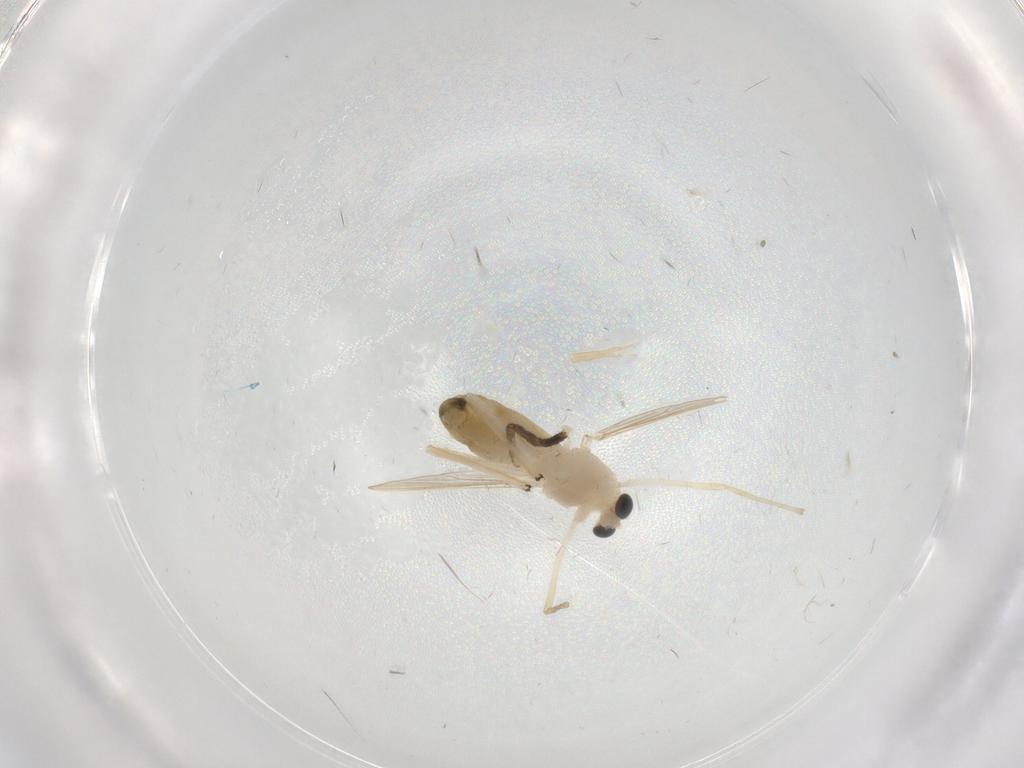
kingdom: Animalia
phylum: Arthropoda
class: Insecta
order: Diptera
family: Chironomidae
